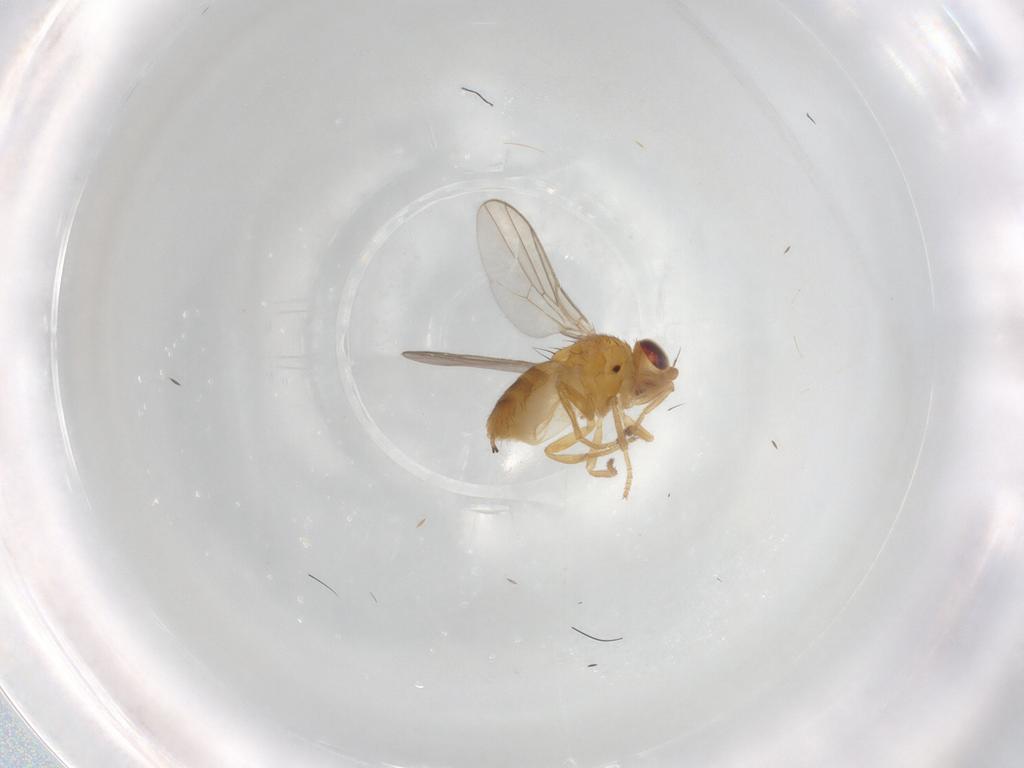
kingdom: Animalia
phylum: Arthropoda
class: Insecta
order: Diptera
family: Chloropidae
